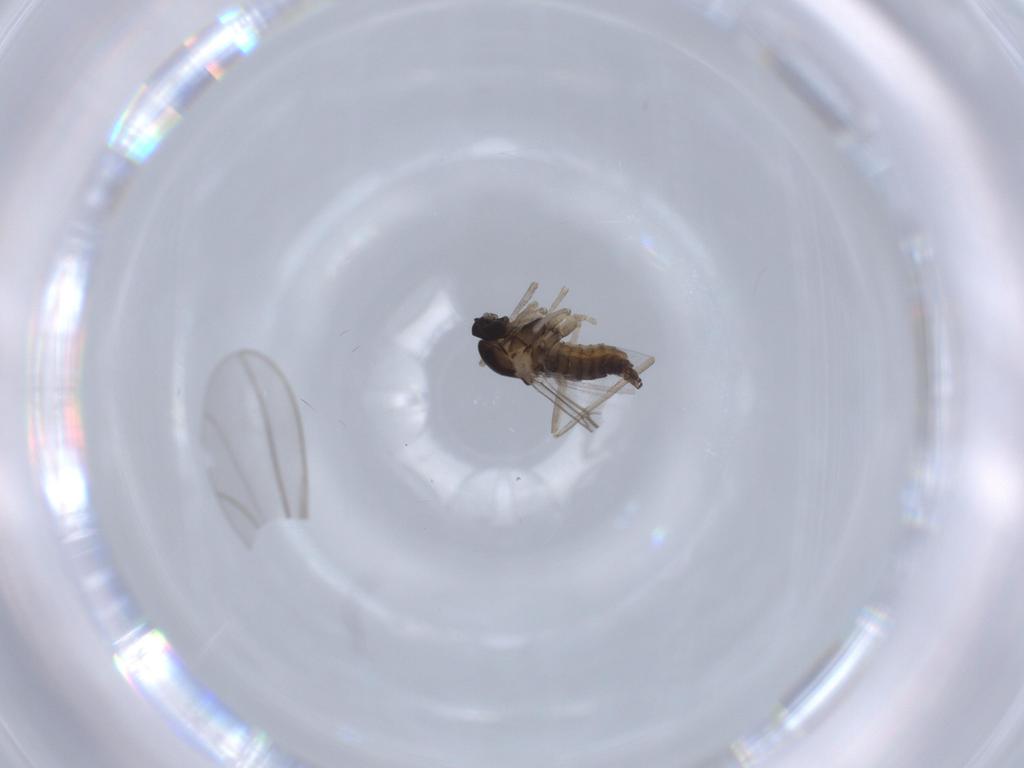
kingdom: Animalia
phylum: Arthropoda
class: Insecta
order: Diptera
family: Cecidomyiidae
